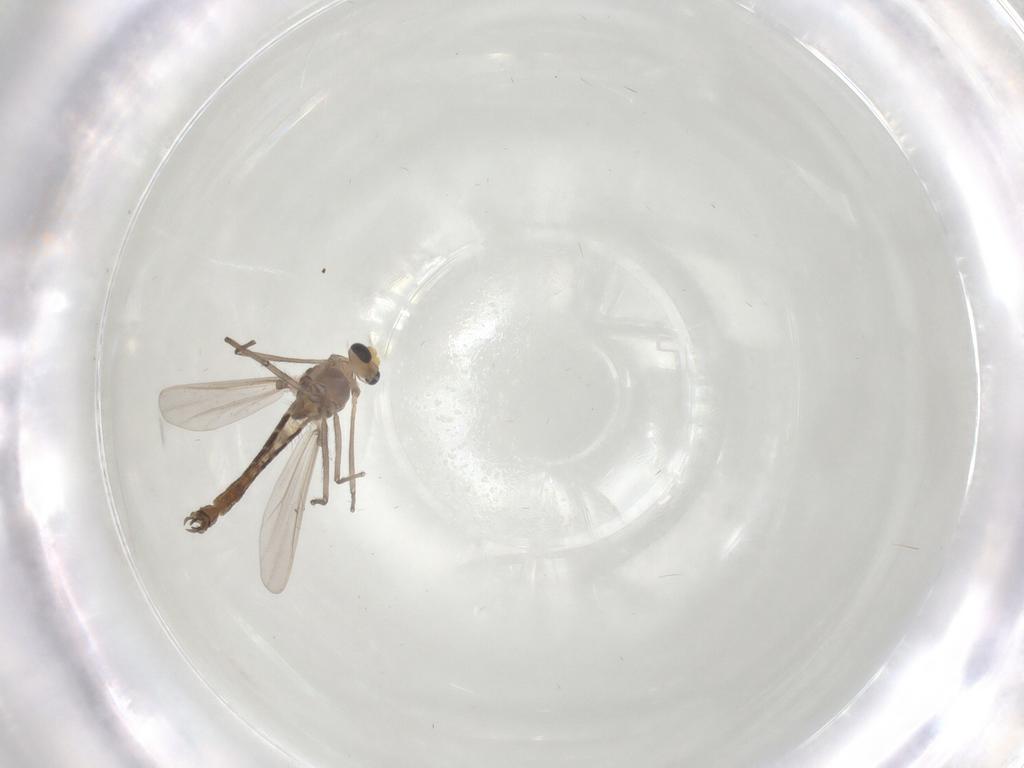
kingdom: Animalia
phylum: Arthropoda
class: Insecta
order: Diptera
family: Chironomidae
